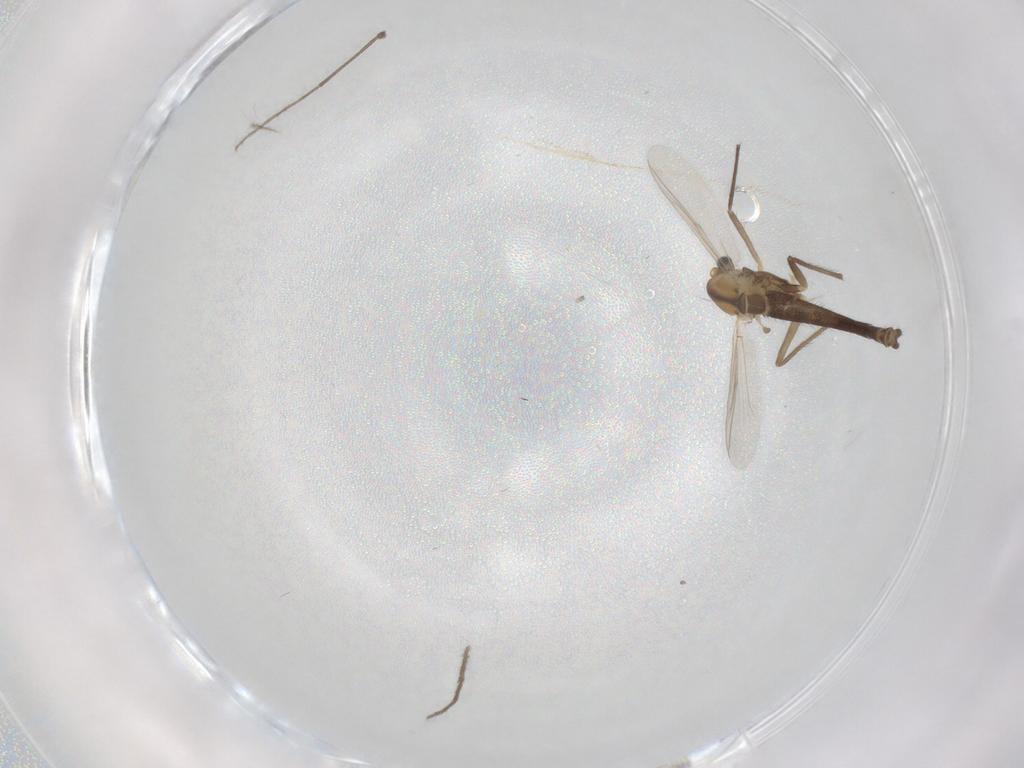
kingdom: Animalia
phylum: Arthropoda
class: Insecta
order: Diptera
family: Chironomidae
